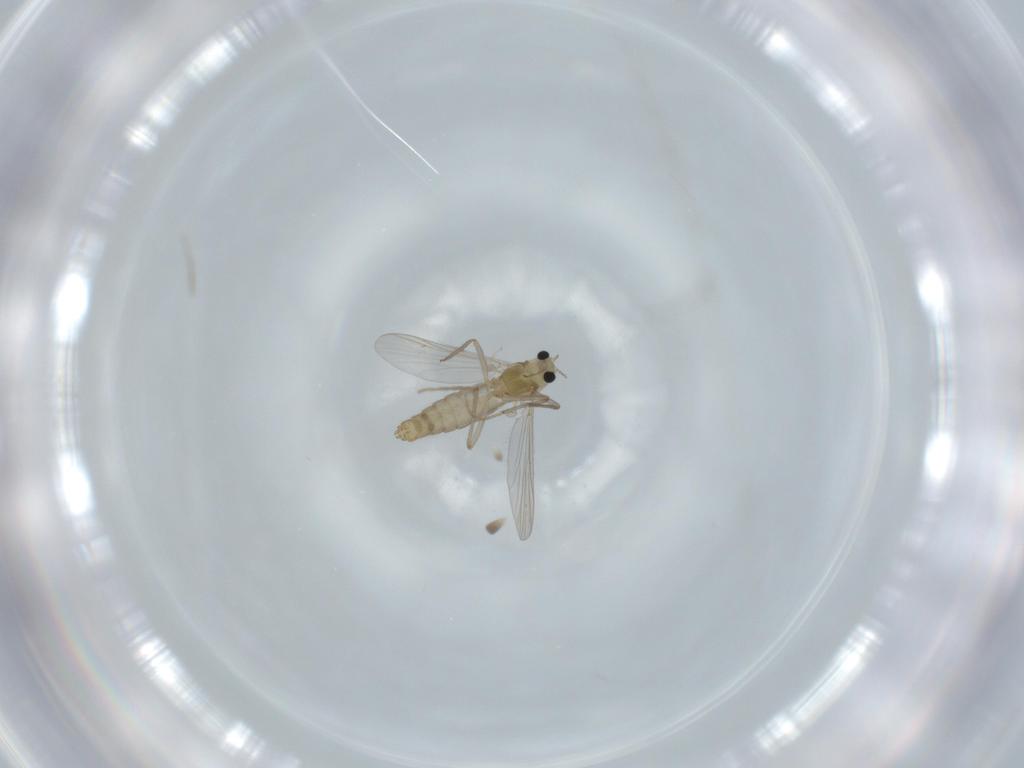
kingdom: Animalia
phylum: Arthropoda
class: Insecta
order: Diptera
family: Chironomidae
